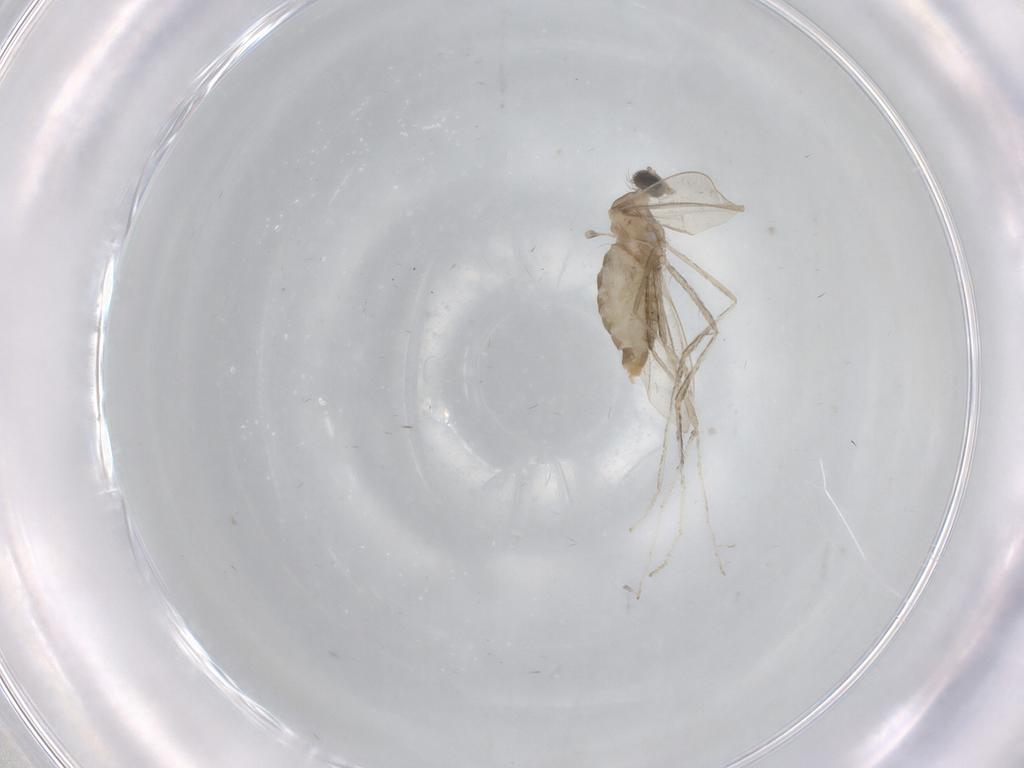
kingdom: Animalia
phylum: Arthropoda
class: Insecta
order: Diptera
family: Cecidomyiidae
